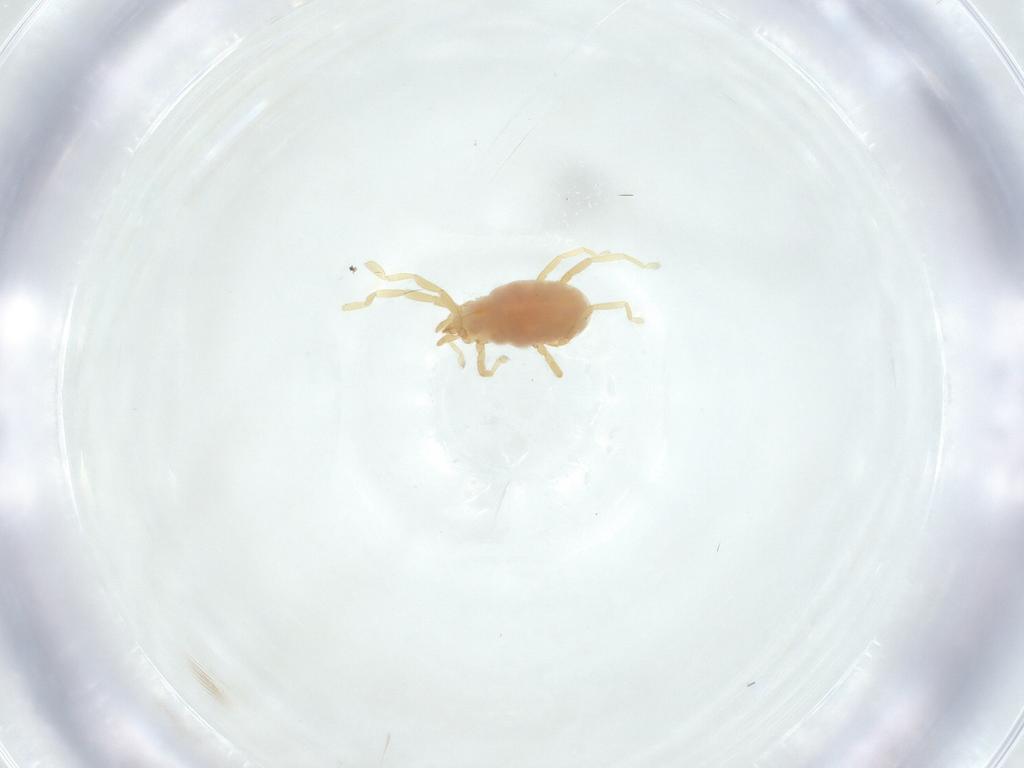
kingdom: Animalia
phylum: Arthropoda
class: Arachnida
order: Trombidiformes
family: Erythraeidae
